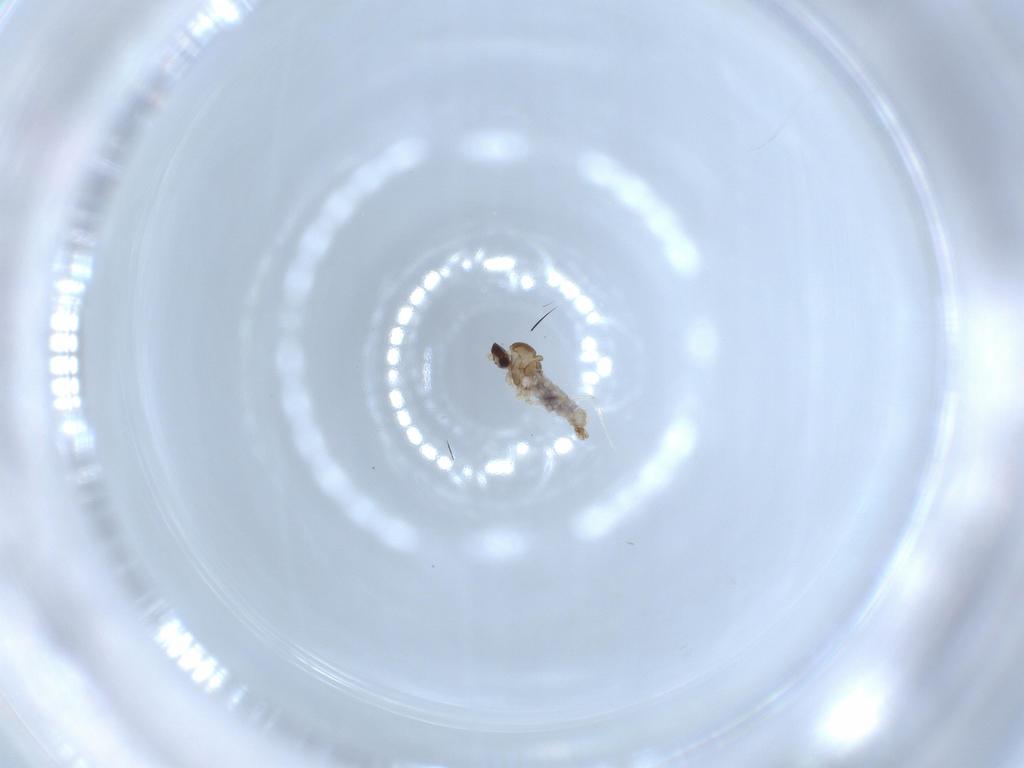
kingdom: Animalia
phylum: Arthropoda
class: Insecta
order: Diptera
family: Cecidomyiidae
